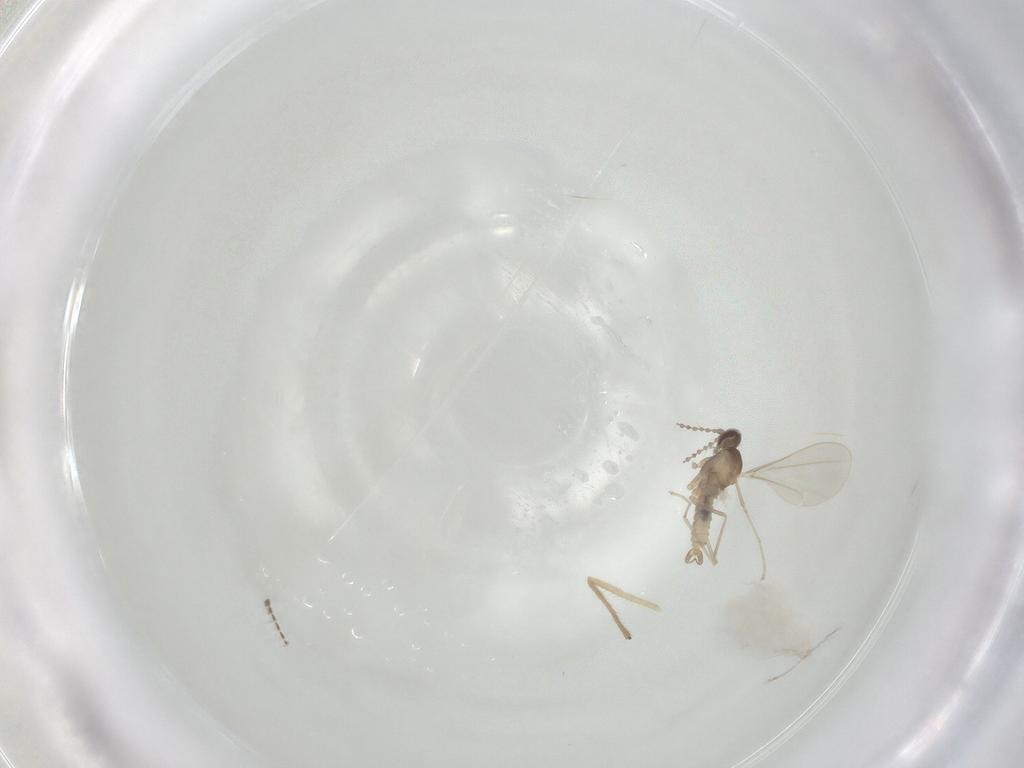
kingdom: Animalia
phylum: Arthropoda
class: Insecta
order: Diptera
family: Cecidomyiidae
